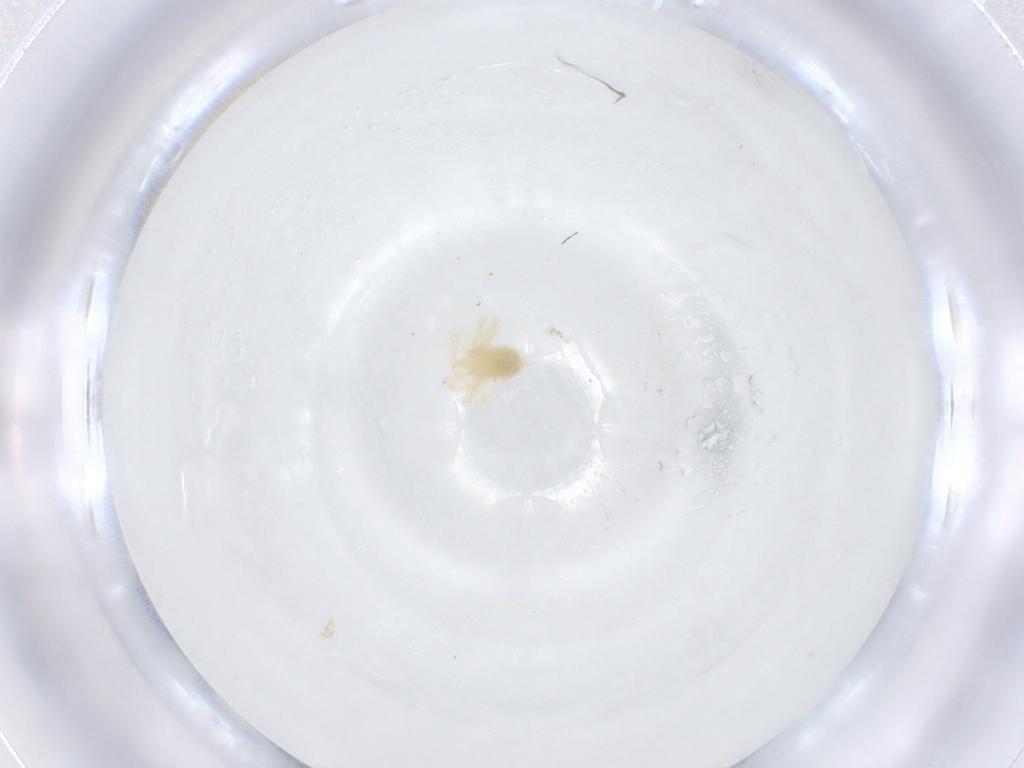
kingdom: Animalia
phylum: Arthropoda
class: Arachnida
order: Trombidiformes
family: Anystidae
